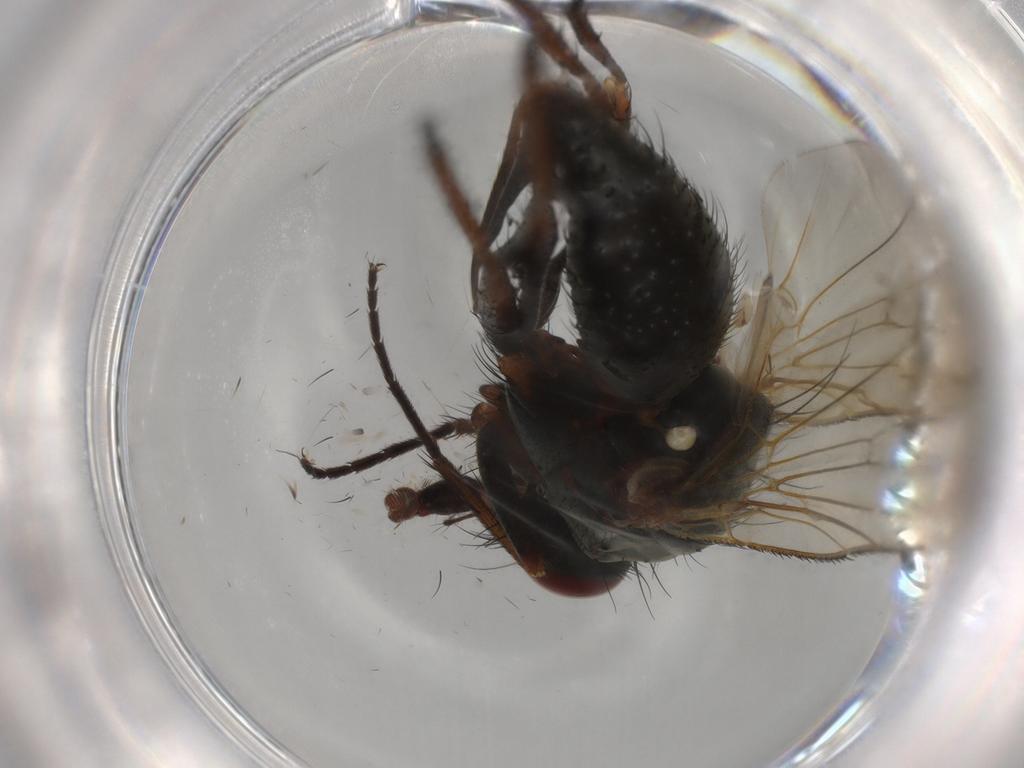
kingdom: Animalia
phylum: Arthropoda
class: Insecta
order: Diptera
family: Anthomyiidae
